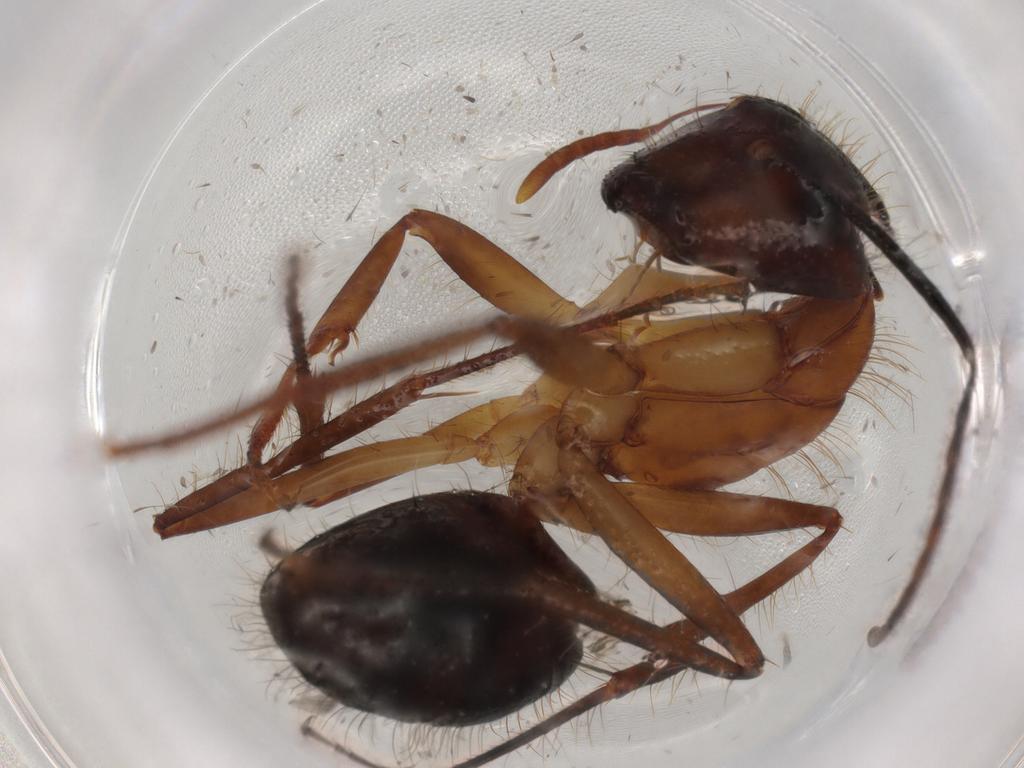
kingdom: Animalia
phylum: Arthropoda
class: Insecta
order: Hymenoptera
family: Formicidae
